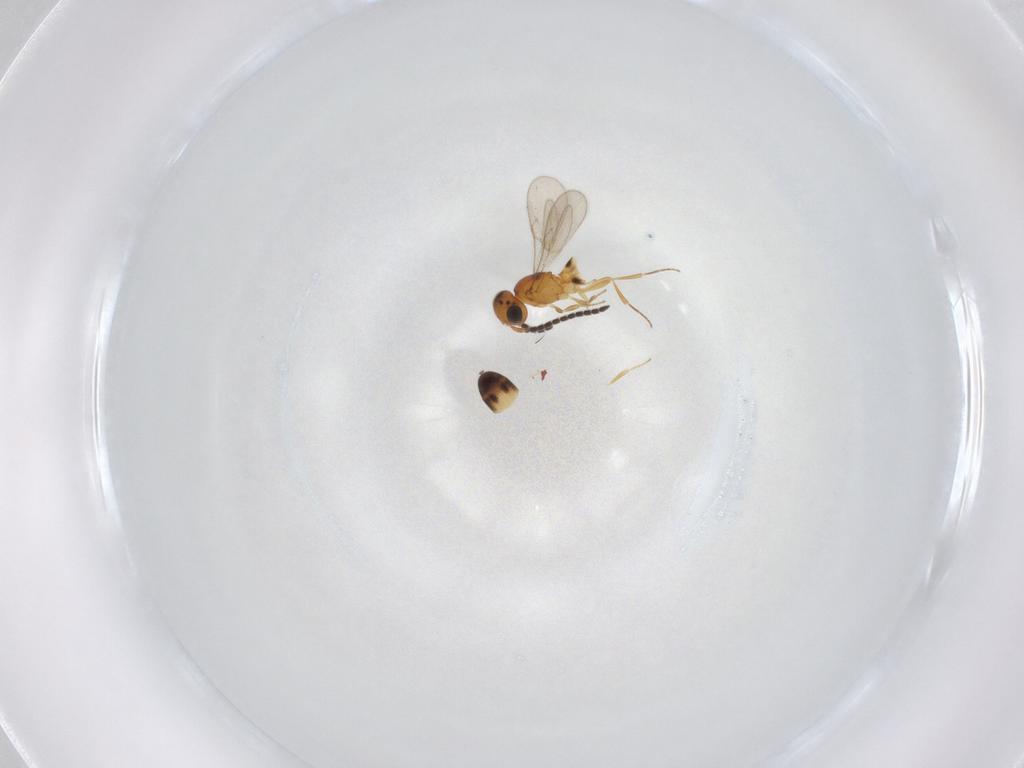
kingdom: Animalia
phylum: Arthropoda
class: Insecta
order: Hymenoptera
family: Scelionidae
